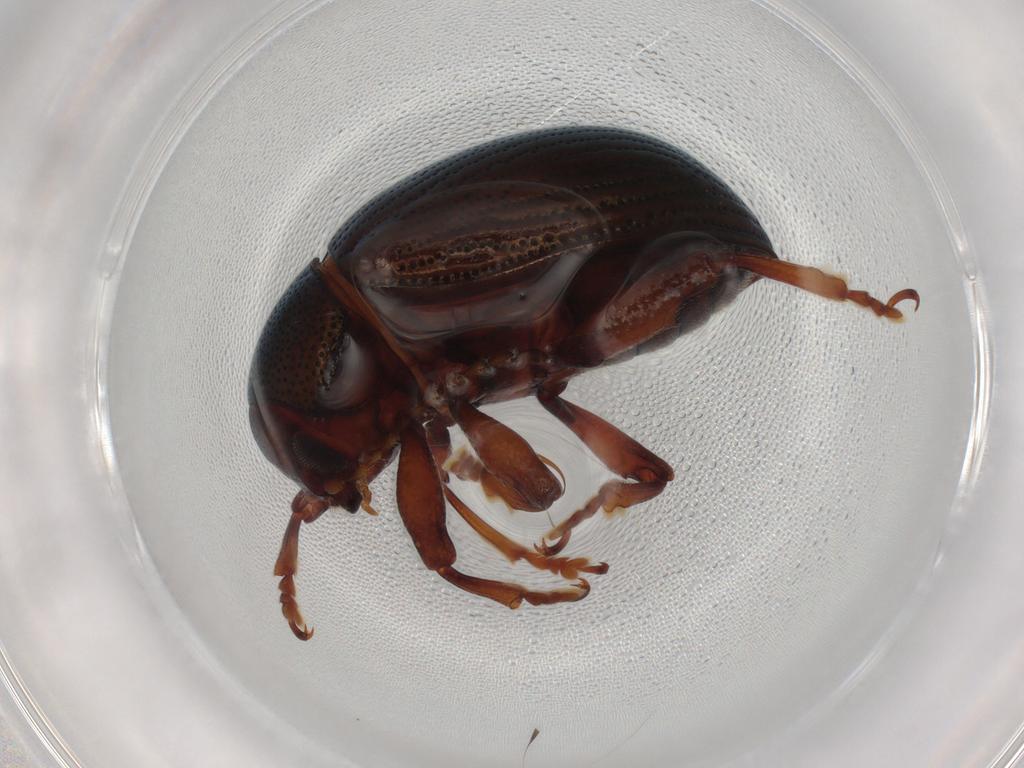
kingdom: Animalia
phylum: Arthropoda
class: Insecta
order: Coleoptera
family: Chrysomelidae
